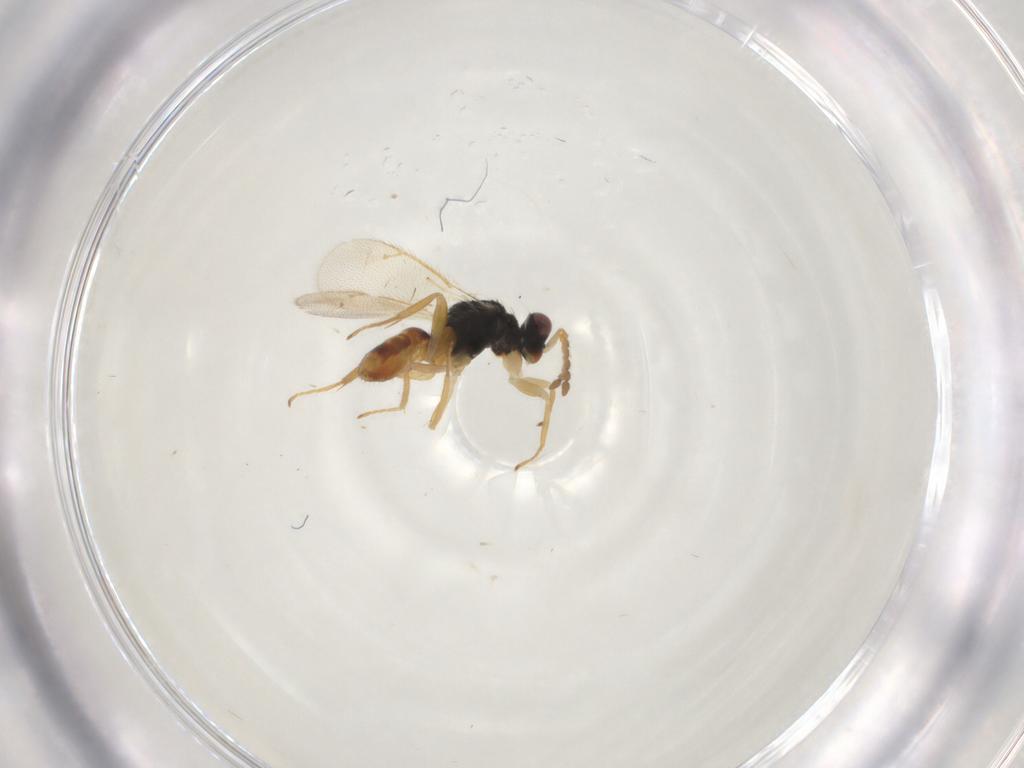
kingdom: Animalia
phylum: Arthropoda
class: Insecta
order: Hymenoptera
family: Eulophidae
